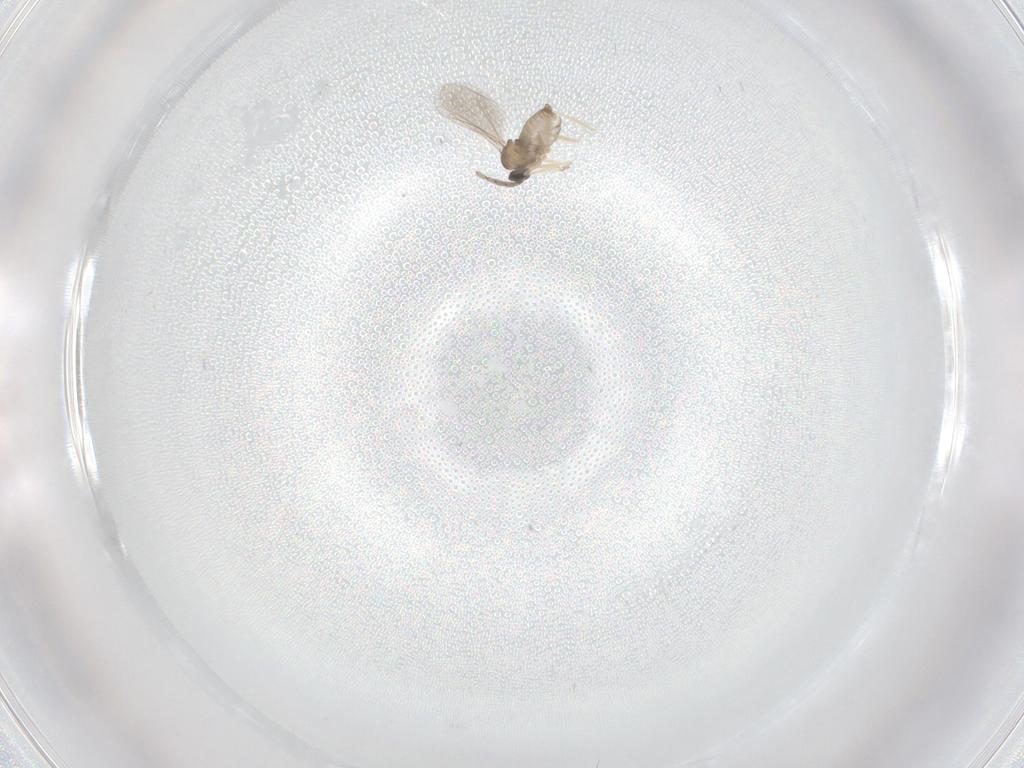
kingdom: Animalia
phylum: Arthropoda
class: Insecta
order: Diptera
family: Cecidomyiidae
